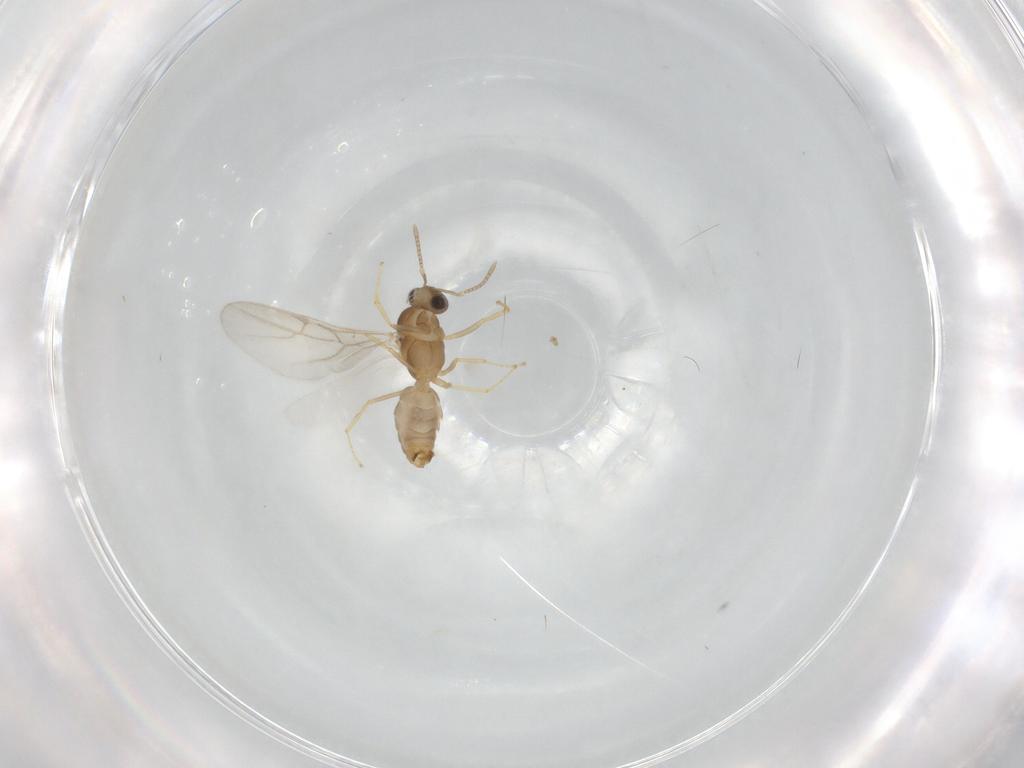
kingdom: Animalia
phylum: Arthropoda
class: Insecta
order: Hymenoptera
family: Formicidae
